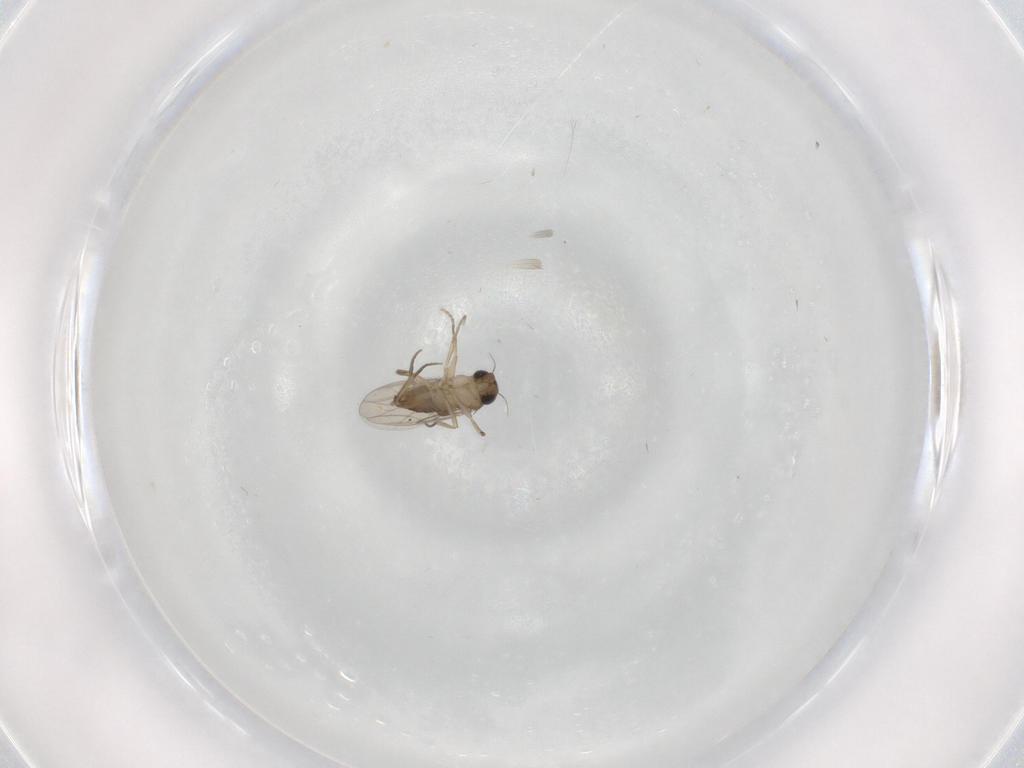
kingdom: Animalia
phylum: Arthropoda
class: Insecta
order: Diptera
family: Phoridae
